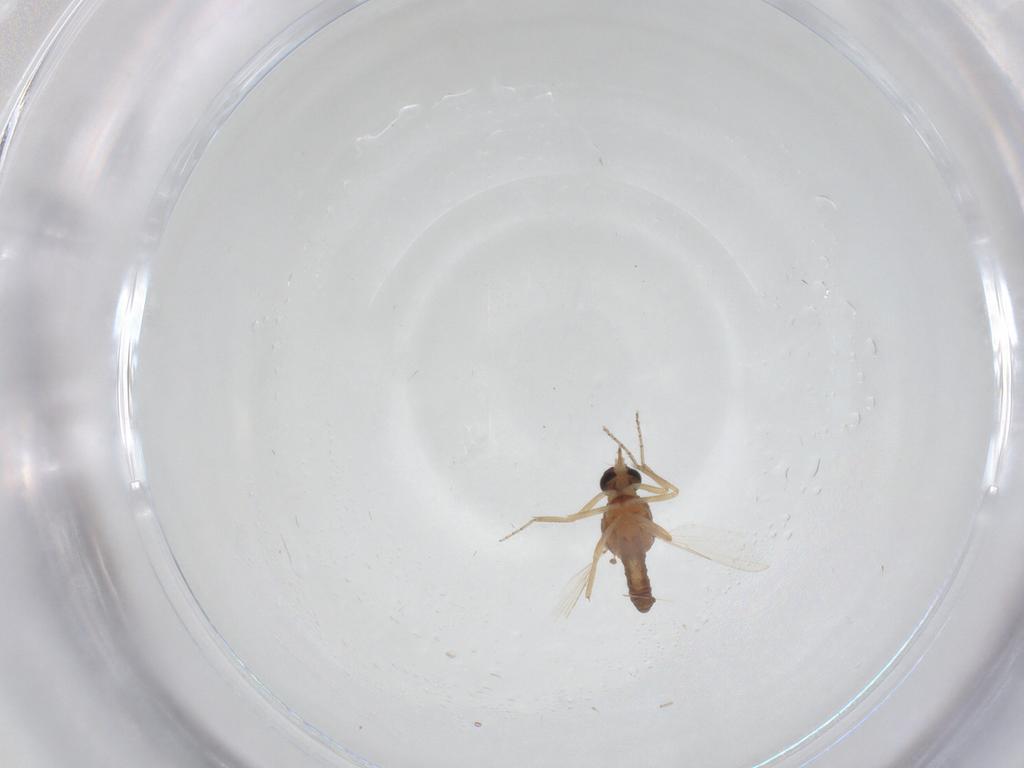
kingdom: Animalia
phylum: Arthropoda
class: Insecta
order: Diptera
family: Ceratopogonidae
